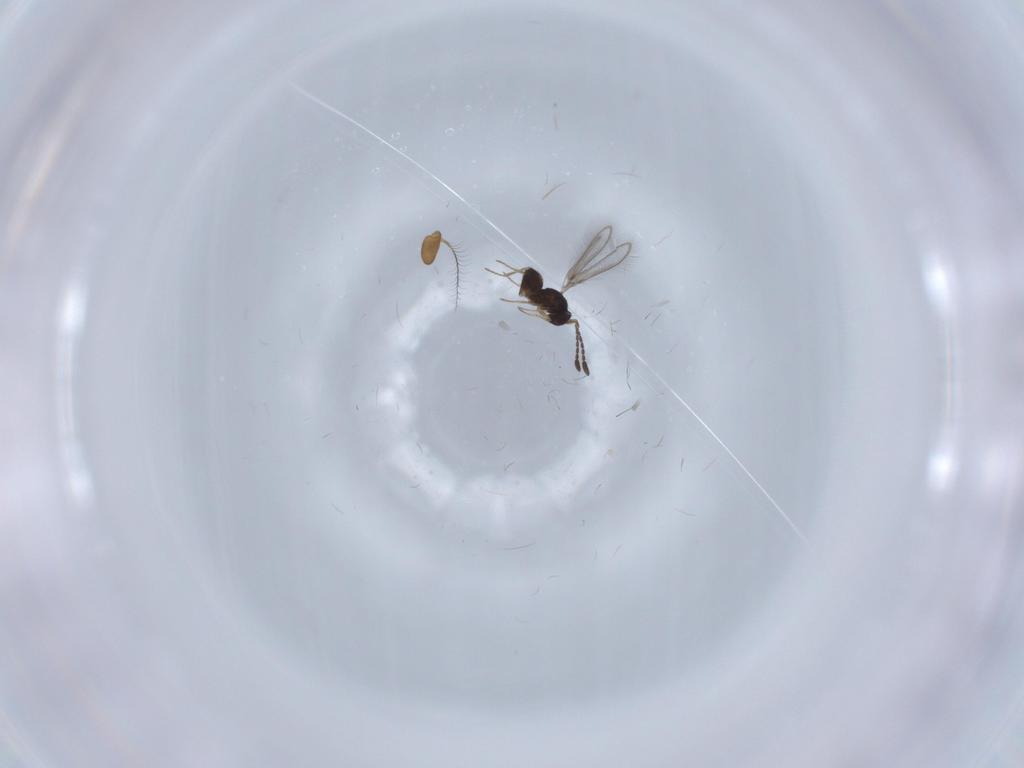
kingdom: Animalia
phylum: Arthropoda
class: Insecta
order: Hymenoptera
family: Mymaridae
